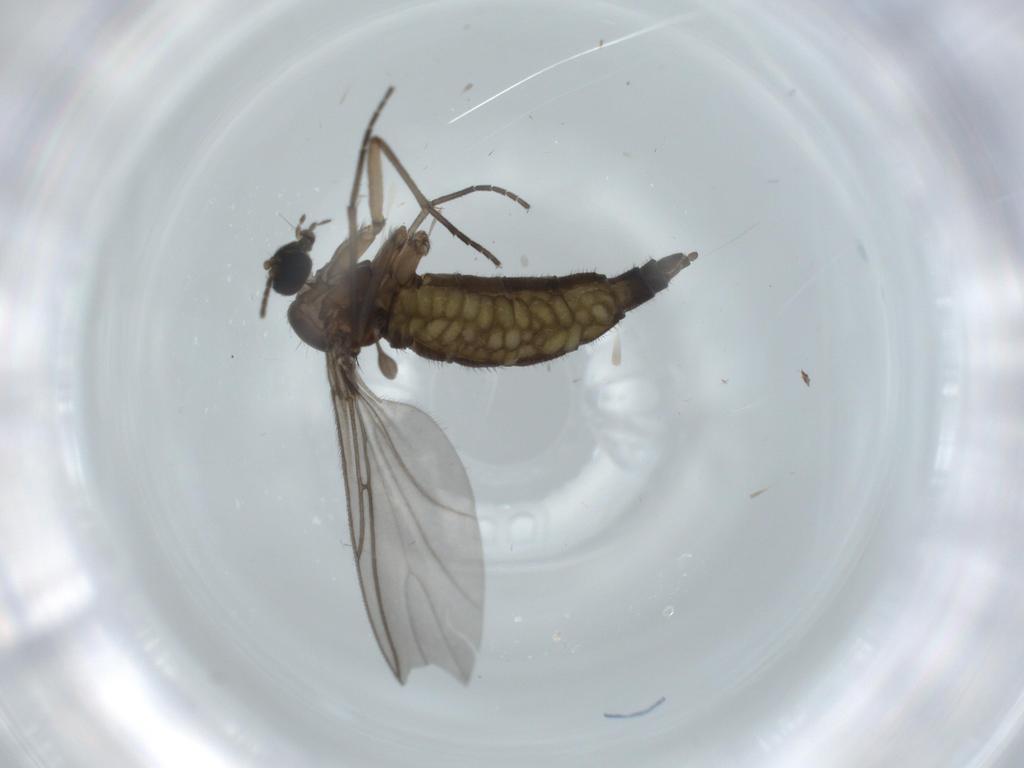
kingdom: Animalia
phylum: Arthropoda
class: Insecta
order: Diptera
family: Sciaridae
